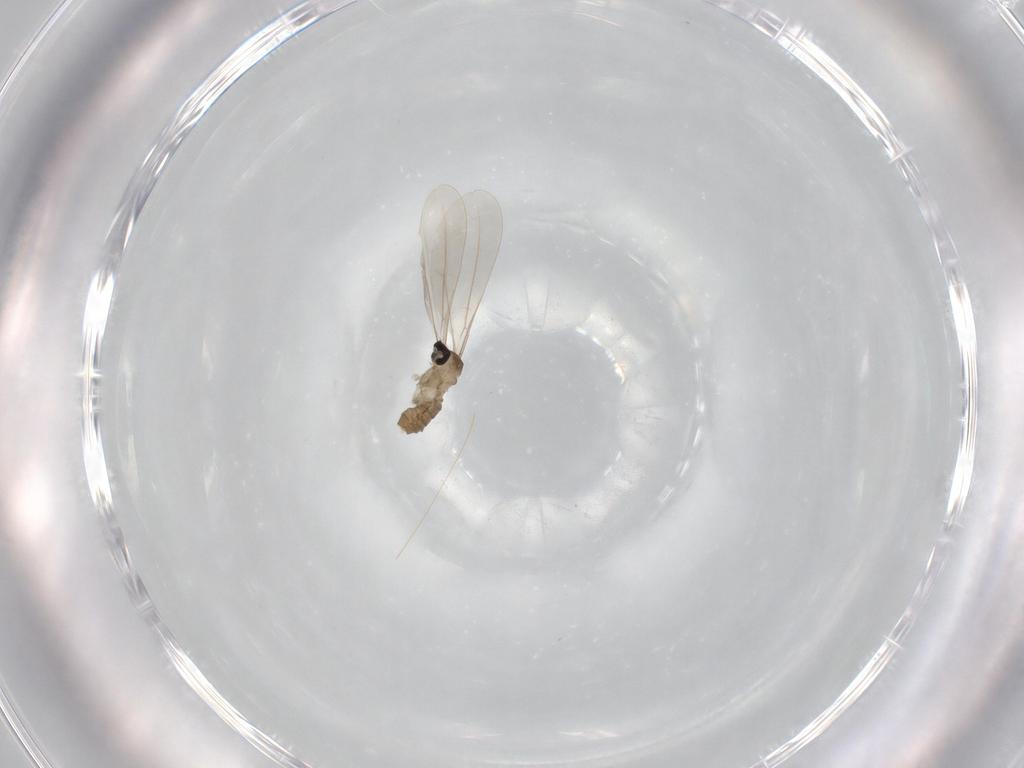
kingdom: Animalia
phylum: Arthropoda
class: Insecta
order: Diptera
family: Cecidomyiidae
